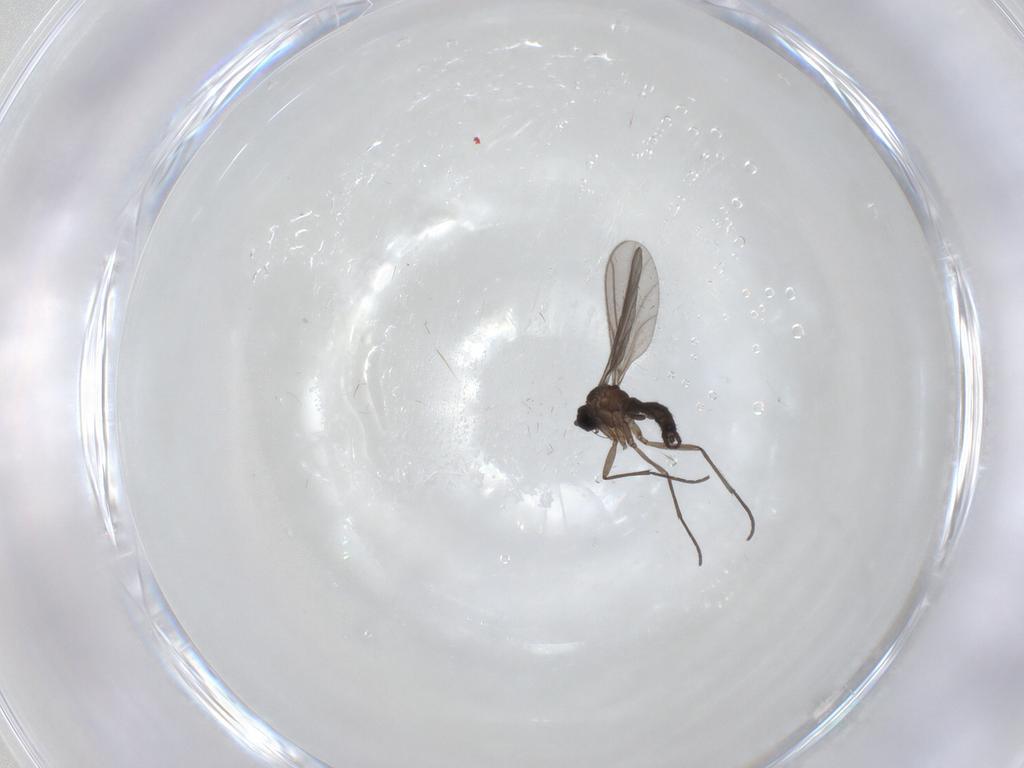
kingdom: Animalia
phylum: Arthropoda
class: Insecta
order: Diptera
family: Sciaridae
